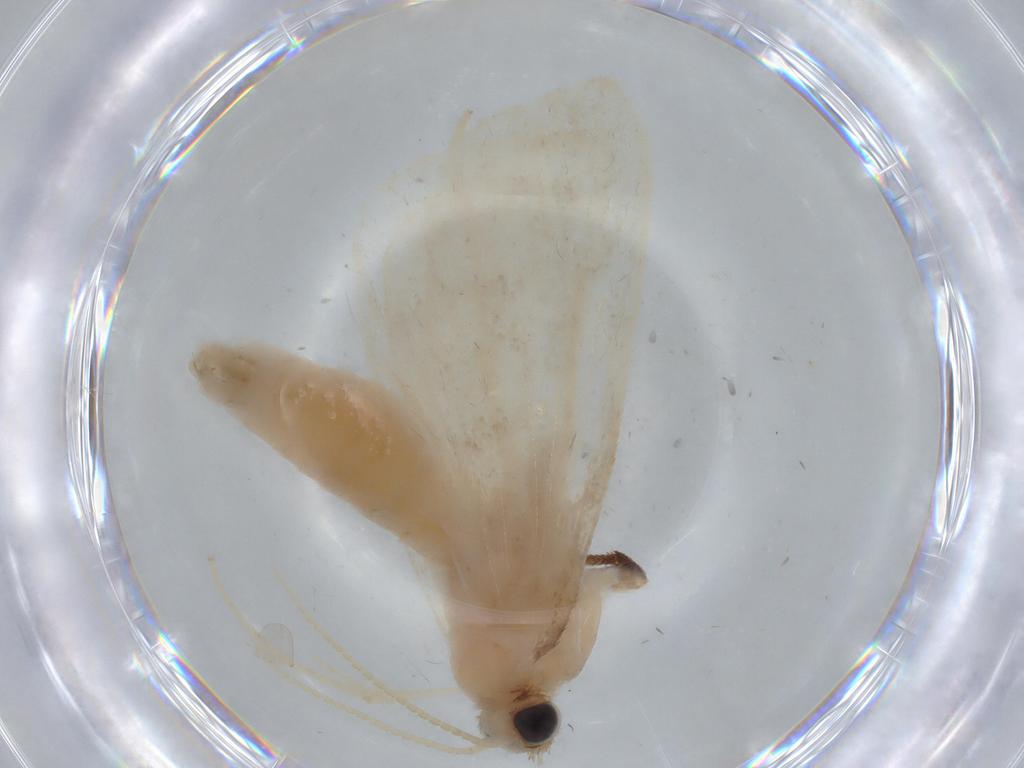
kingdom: Animalia
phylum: Arthropoda
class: Insecta
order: Lepidoptera
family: Crambidae
